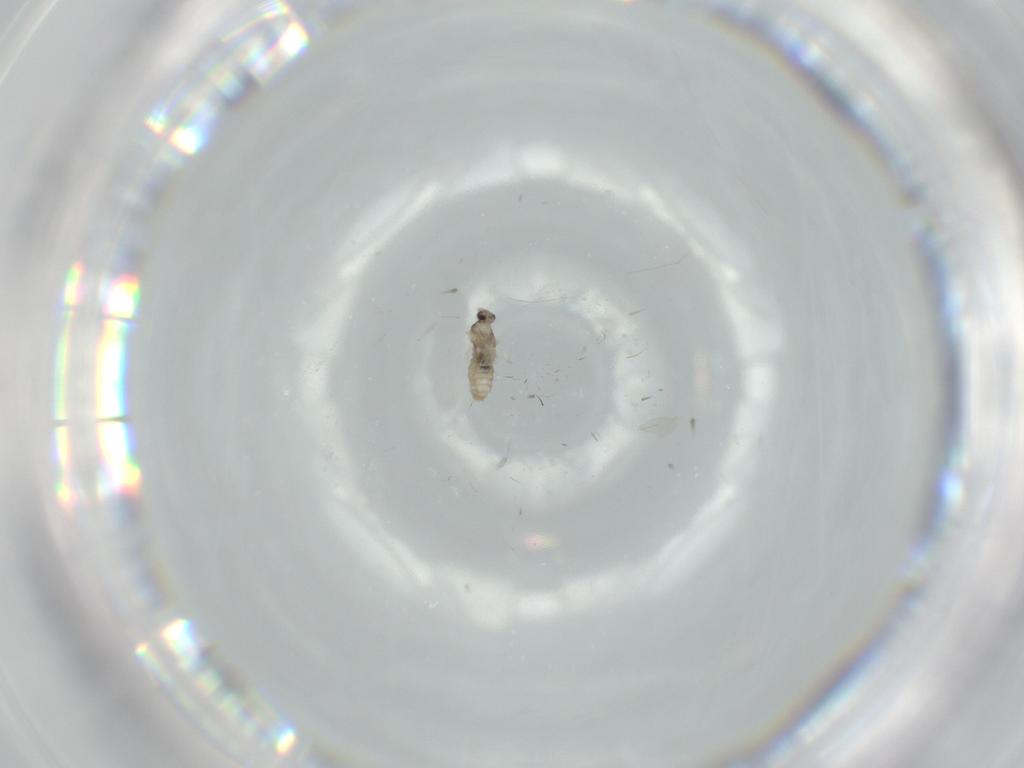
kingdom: Animalia
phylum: Arthropoda
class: Insecta
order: Diptera
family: Cecidomyiidae
